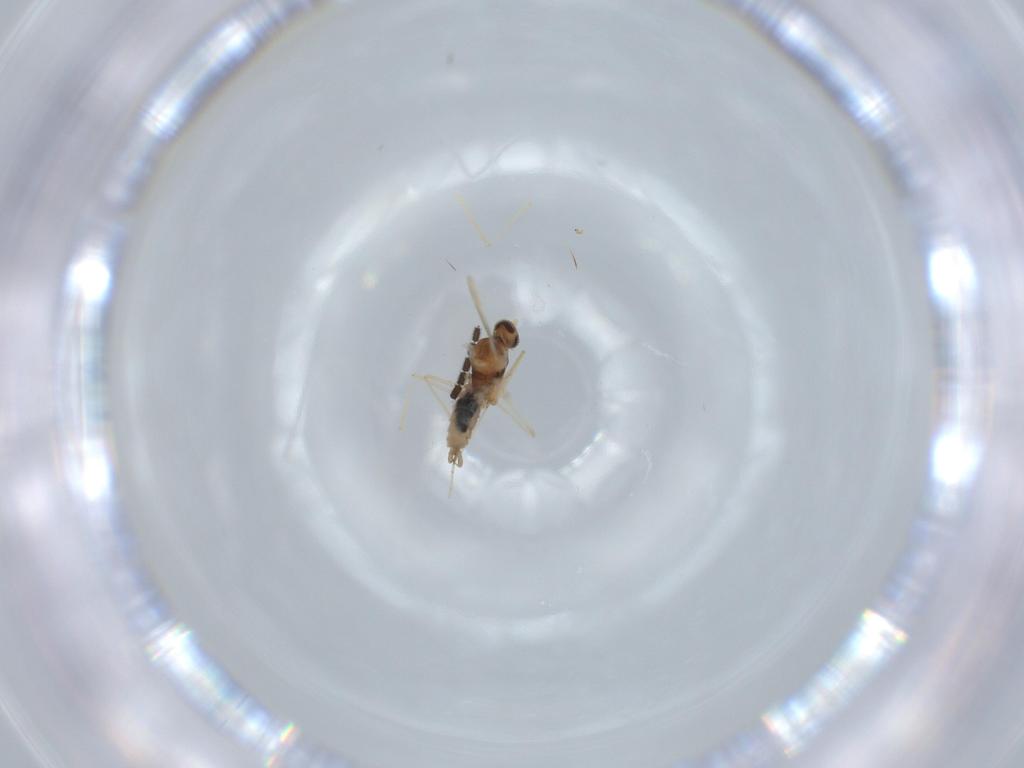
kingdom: Animalia
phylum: Arthropoda
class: Insecta
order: Diptera
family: Cecidomyiidae
